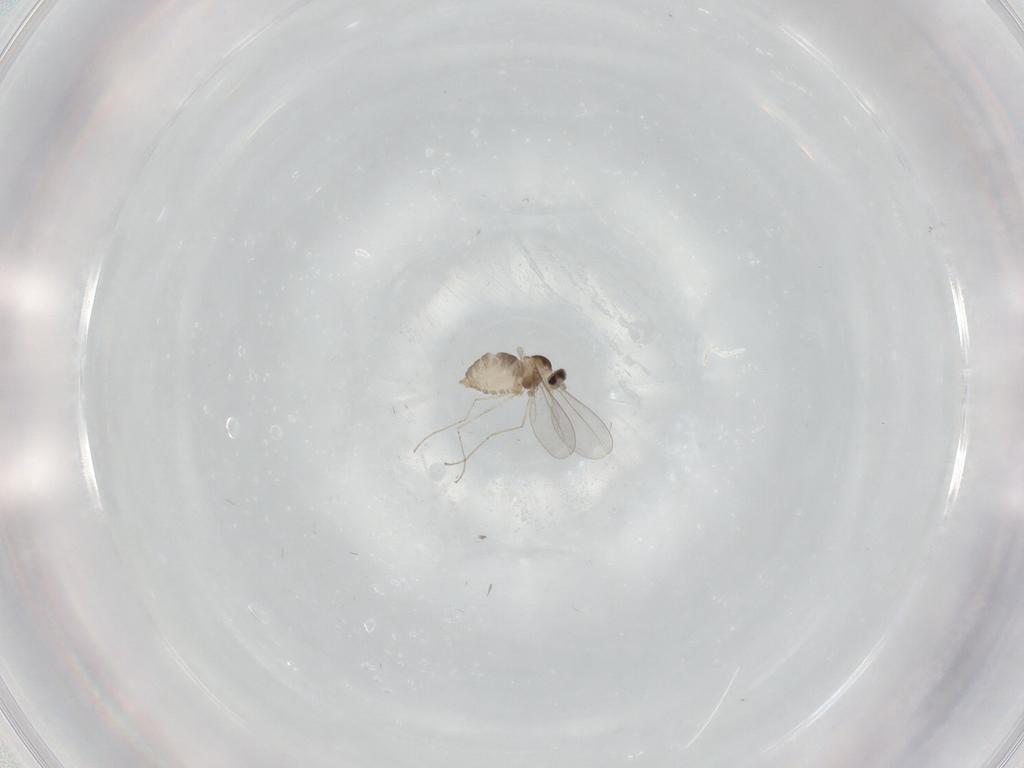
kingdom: Animalia
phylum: Arthropoda
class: Insecta
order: Diptera
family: Cecidomyiidae
